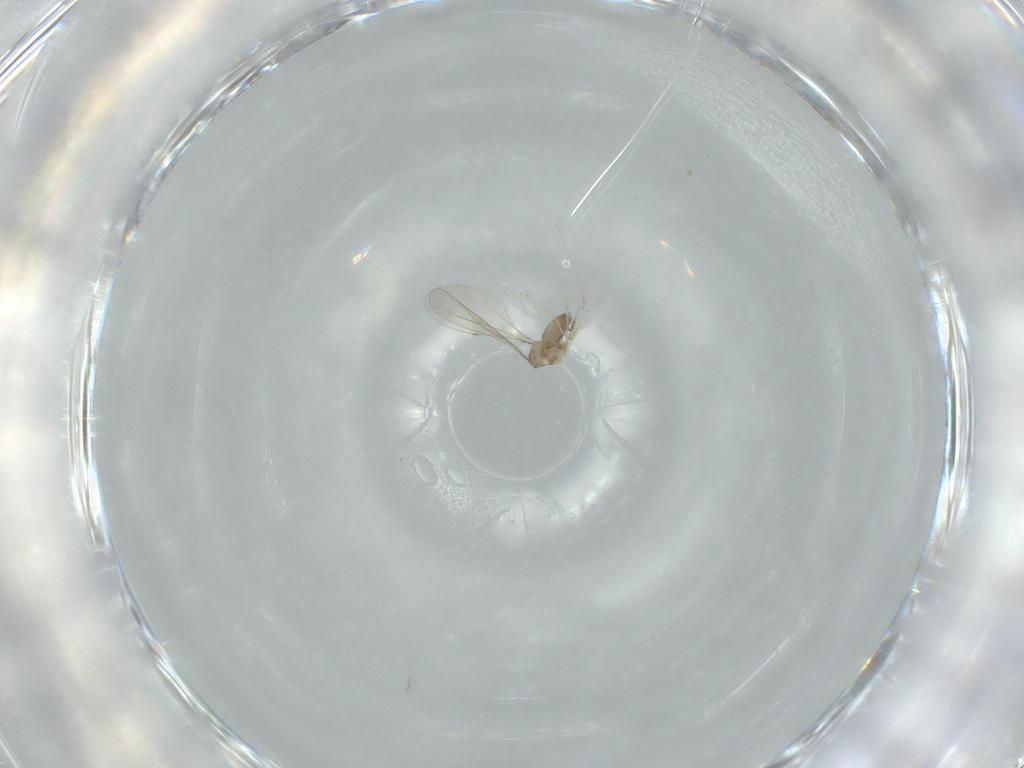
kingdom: Animalia
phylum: Arthropoda
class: Insecta
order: Diptera
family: Cecidomyiidae
